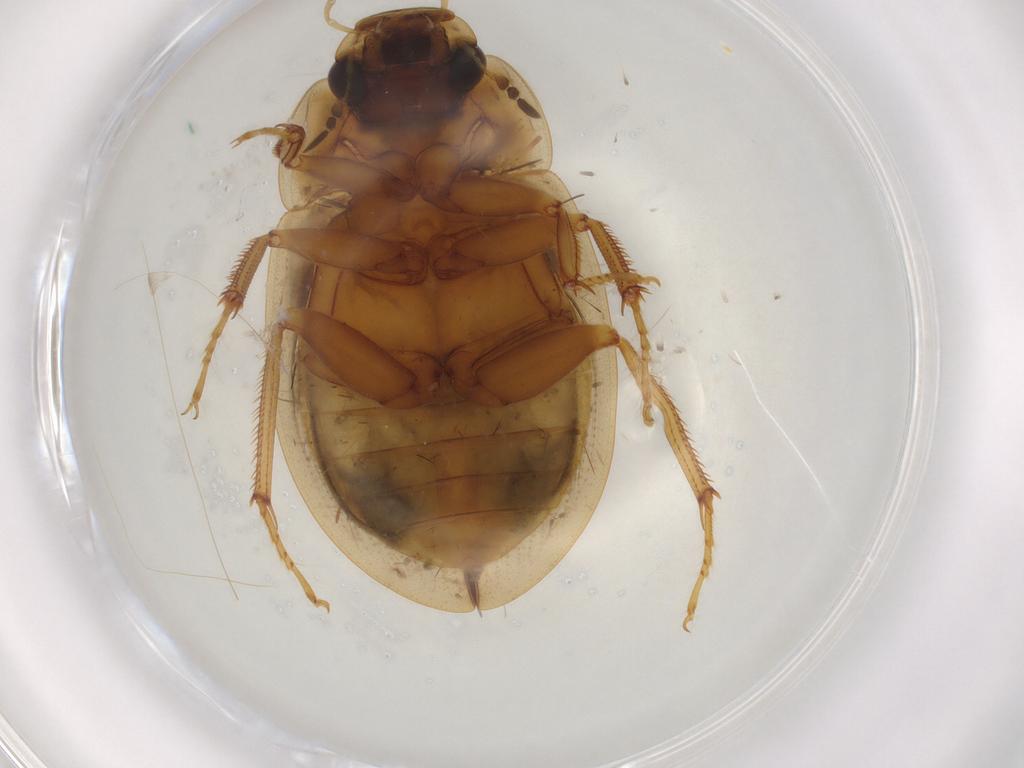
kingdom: Animalia
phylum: Arthropoda
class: Insecta
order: Coleoptera
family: Hydrophilidae
